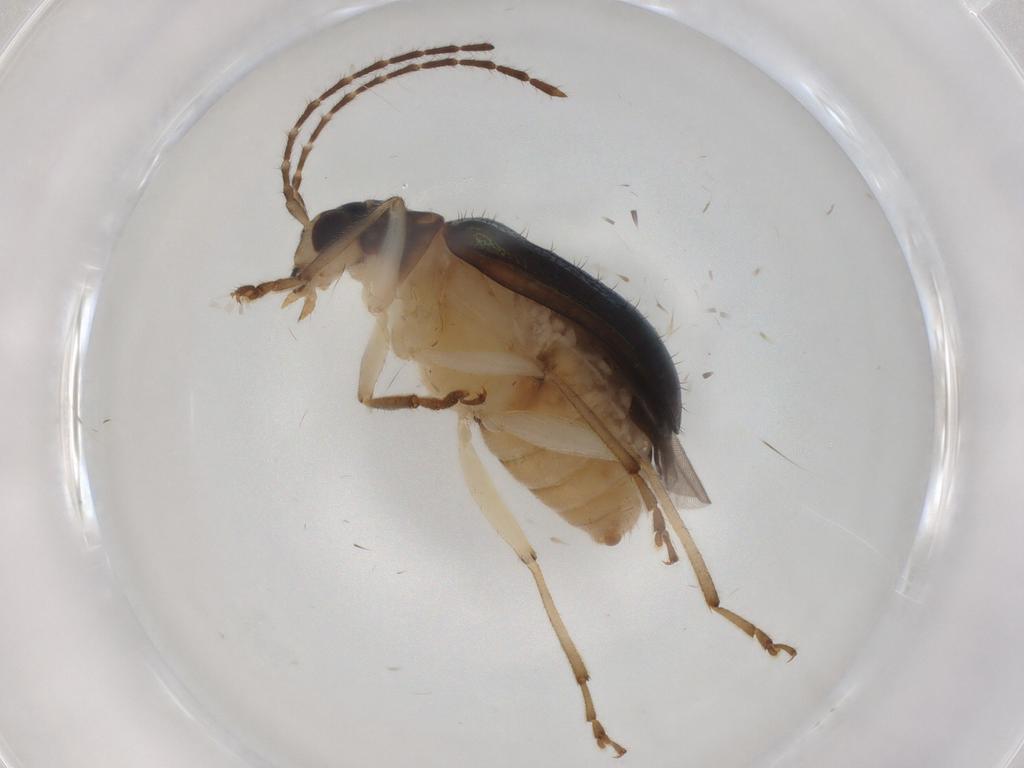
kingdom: Animalia
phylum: Arthropoda
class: Insecta
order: Coleoptera
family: Chrysomelidae
